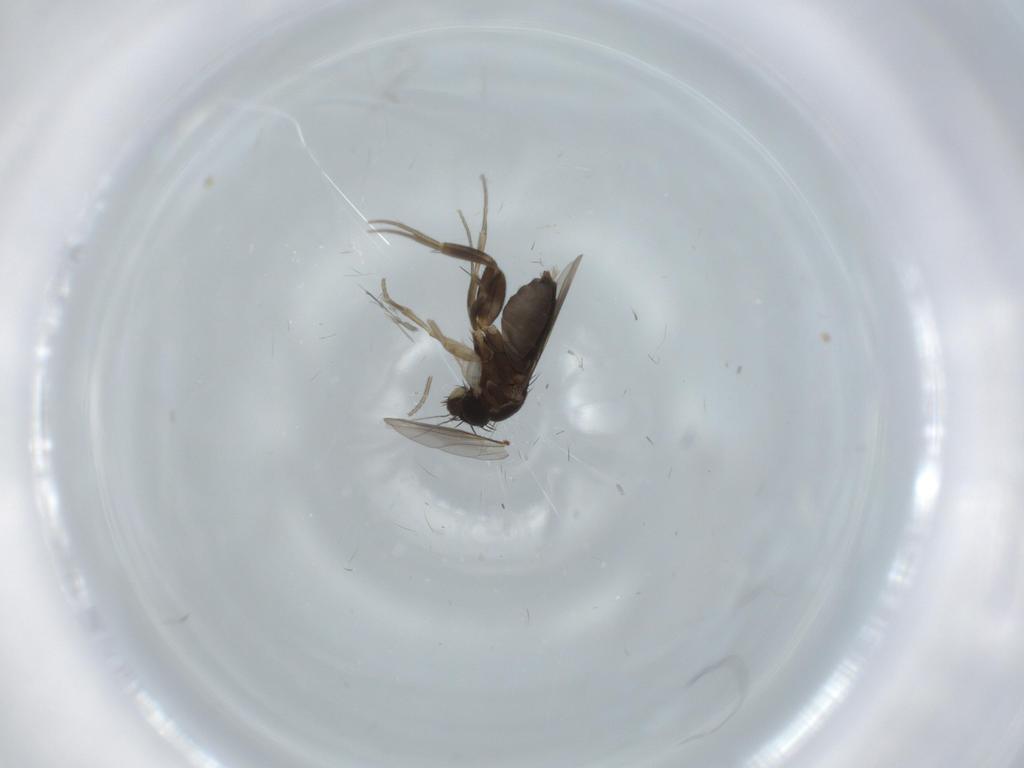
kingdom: Animalia
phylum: Arthropoda
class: Insecta
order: Diptera
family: Phoridae
